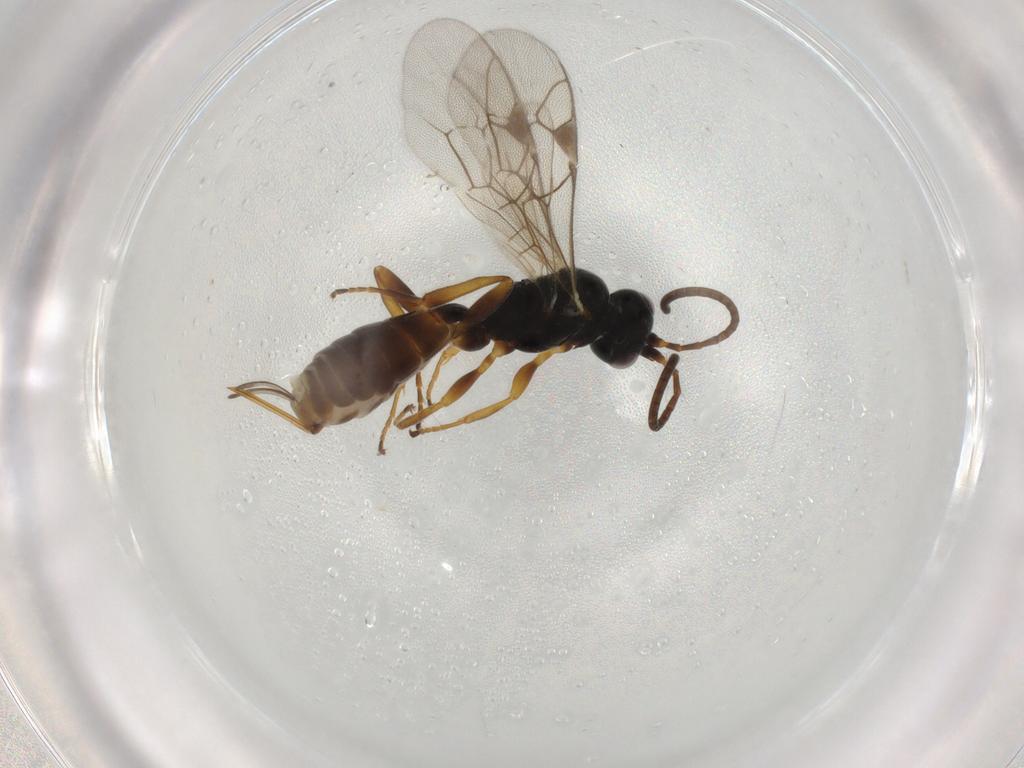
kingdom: Animalia
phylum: Arthropoda
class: Insecta
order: Hymenoptera
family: Ichneumonidae
